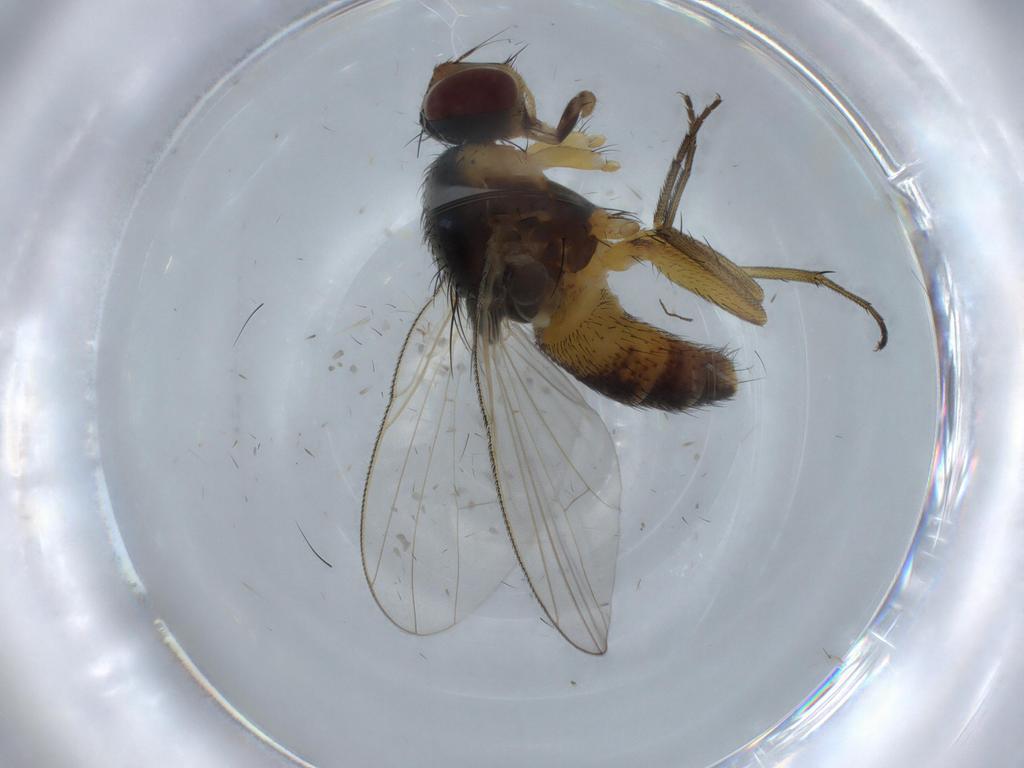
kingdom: Animalia
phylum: Arthropoda
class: Insecta
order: Diptera
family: Muscidae
